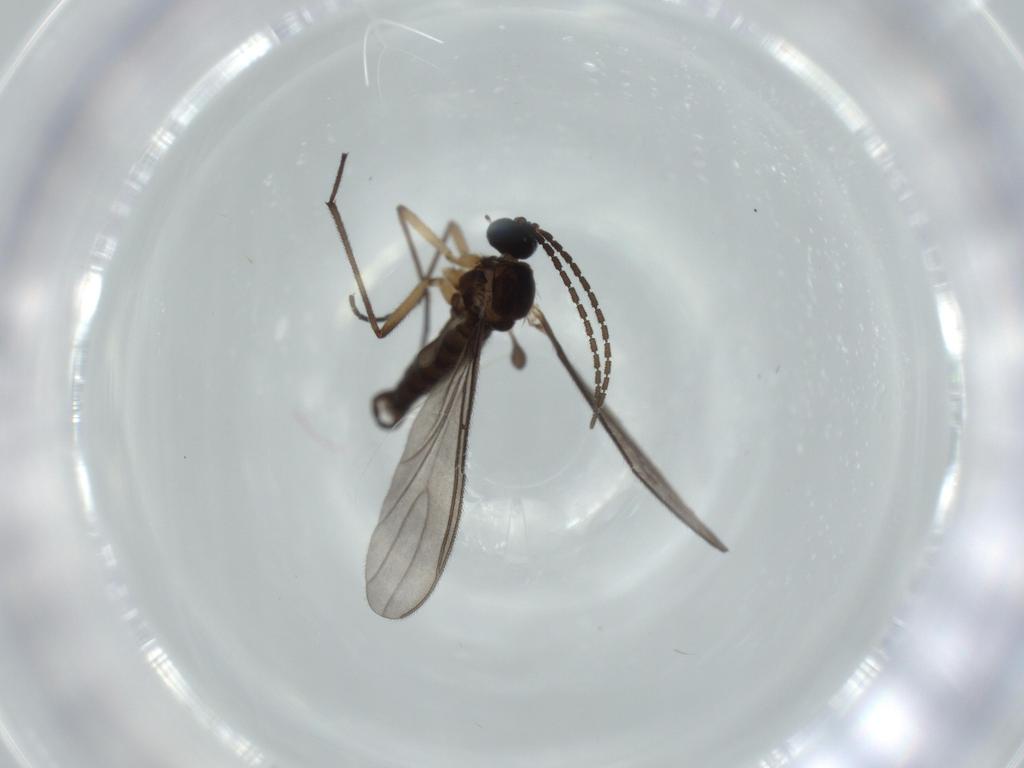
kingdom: Animalia
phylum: Arthropoda
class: Insecta
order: Diptera
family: Sciaridae
